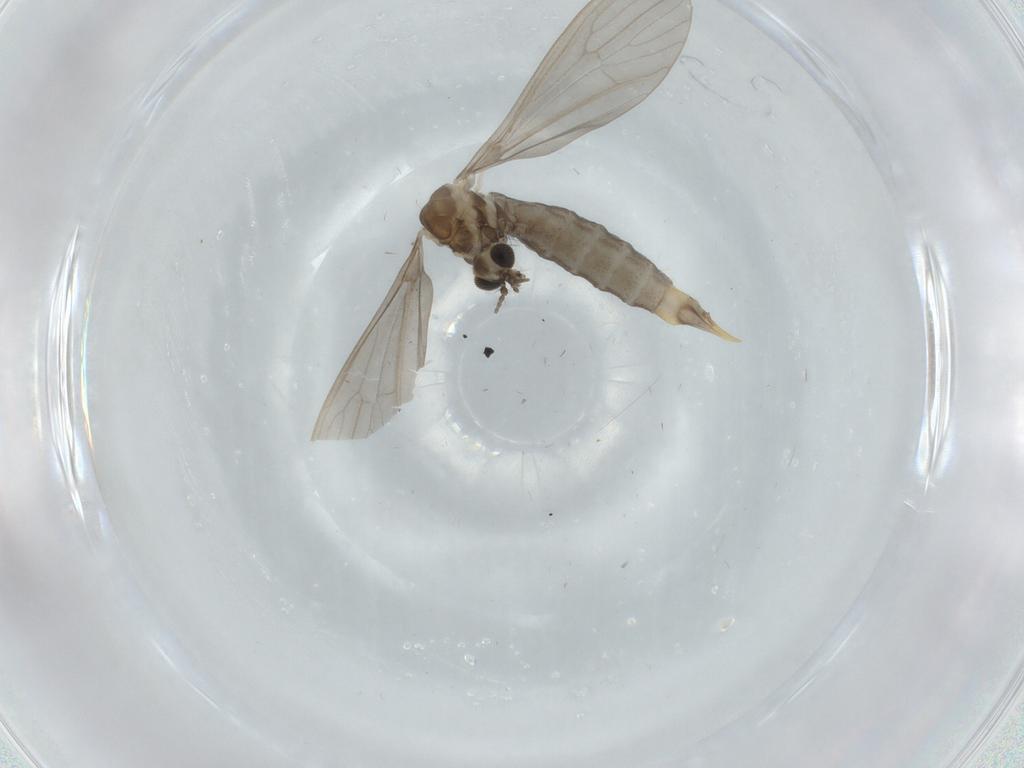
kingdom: Animalia
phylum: Arthropoda
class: Insecta
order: Diptera
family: Limoniidae
